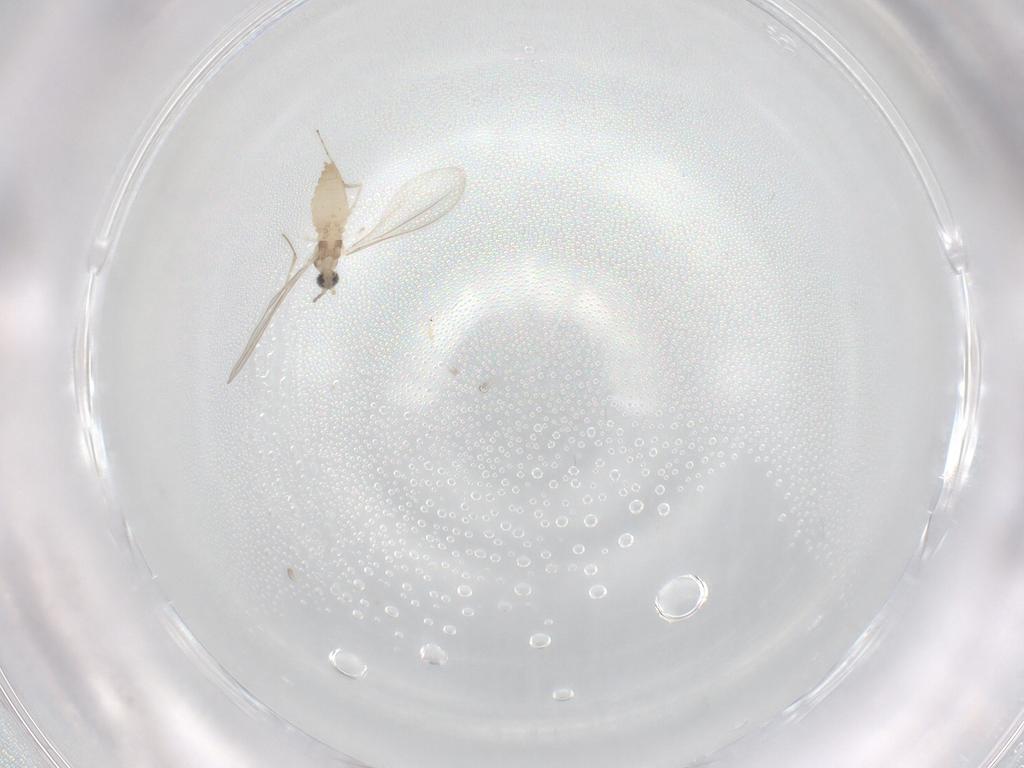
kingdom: Animalia
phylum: Arthropoda
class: Insecta
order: Diptera
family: Cecidomyiidae
